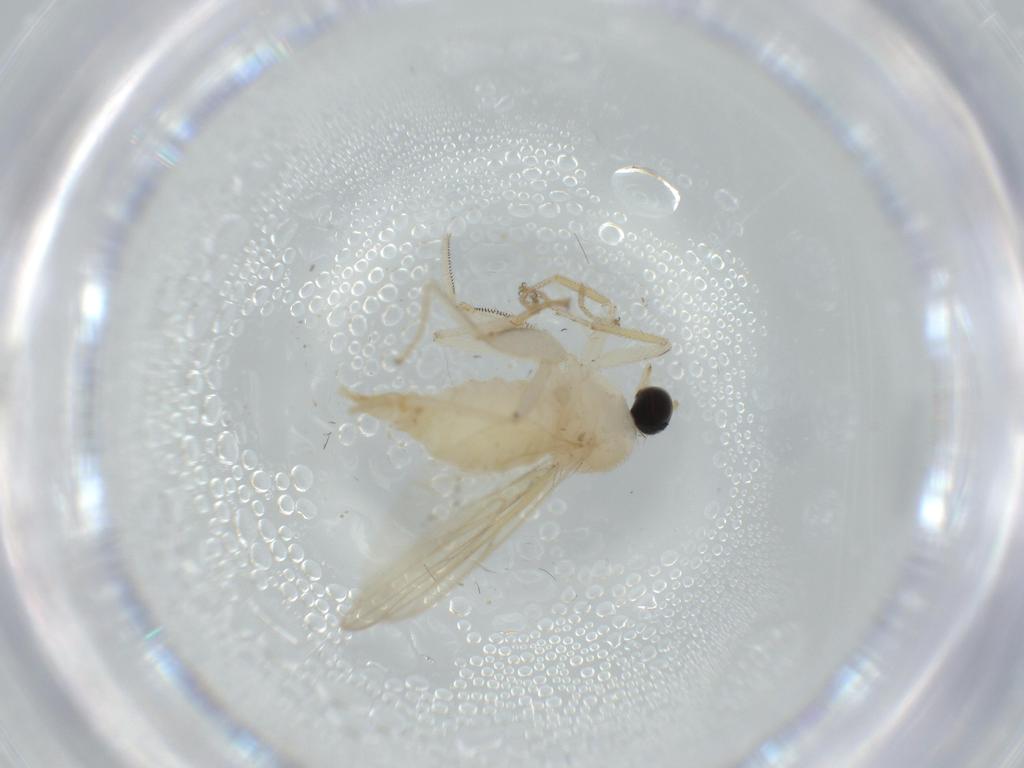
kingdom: Animalia
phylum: Arthropoda
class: Insecta
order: Diptera
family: Hybotidae
